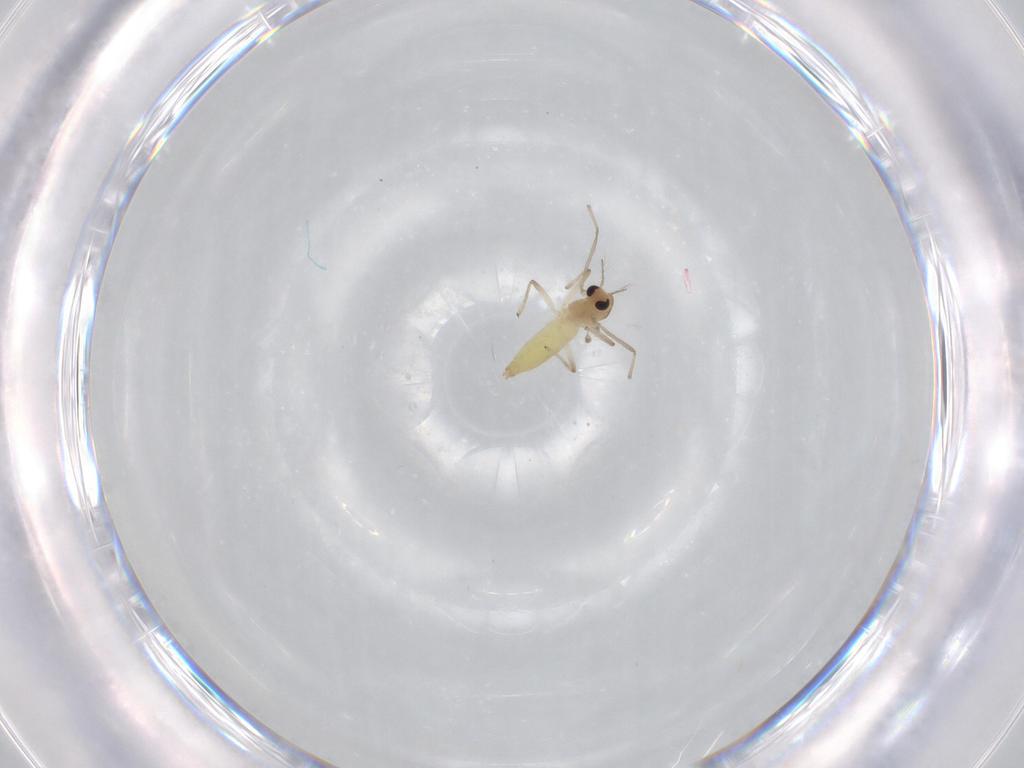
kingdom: Animalia
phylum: Arthropoda
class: Insecta
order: Diptera
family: Chironomidae
